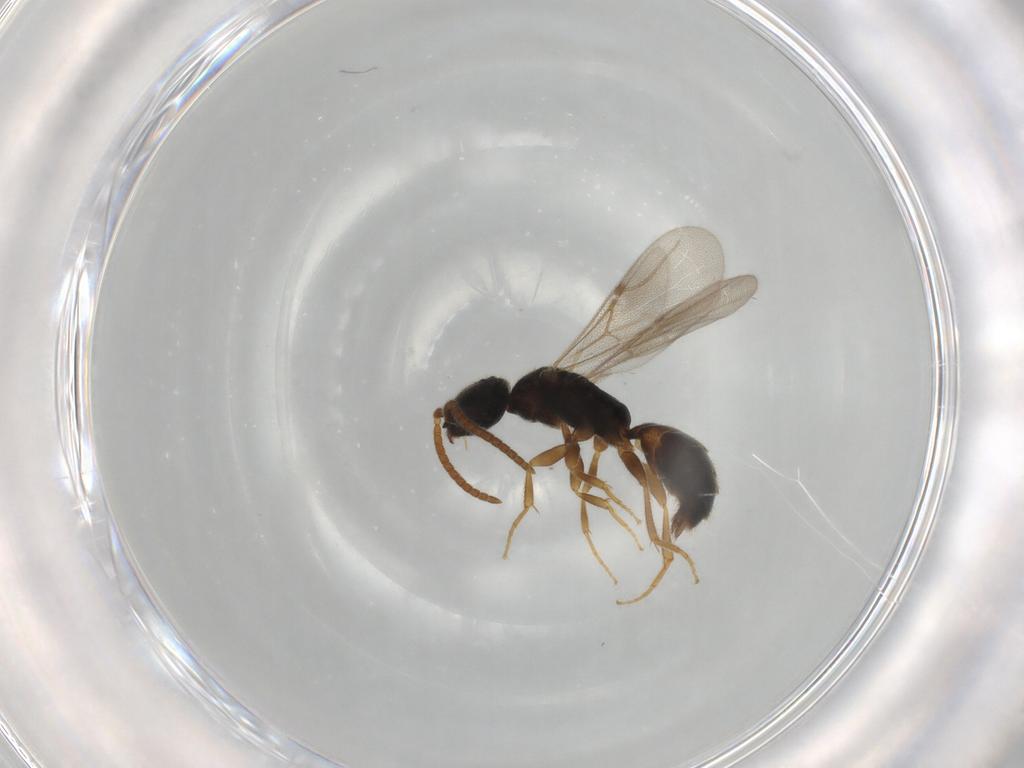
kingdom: Animalia
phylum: Arthropoda
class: Insecta
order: Hymenoptera
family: Bethylidae
